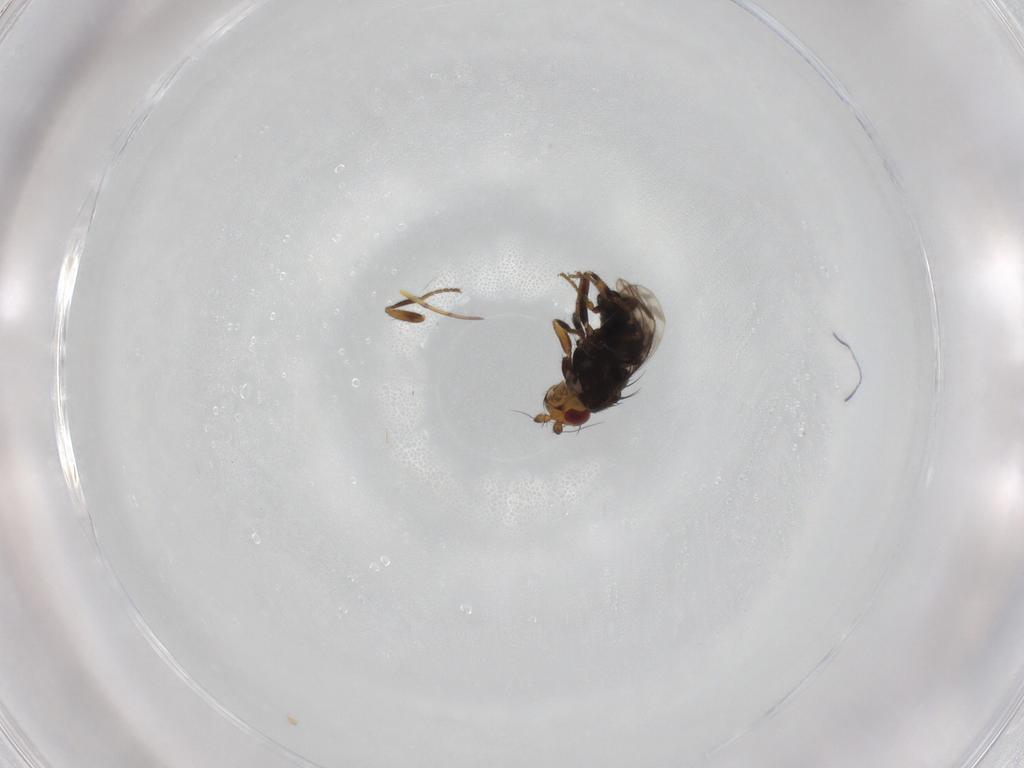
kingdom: Animalia
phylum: Arthropoda
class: Insecta
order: Diptera
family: Sphaeroceridae
